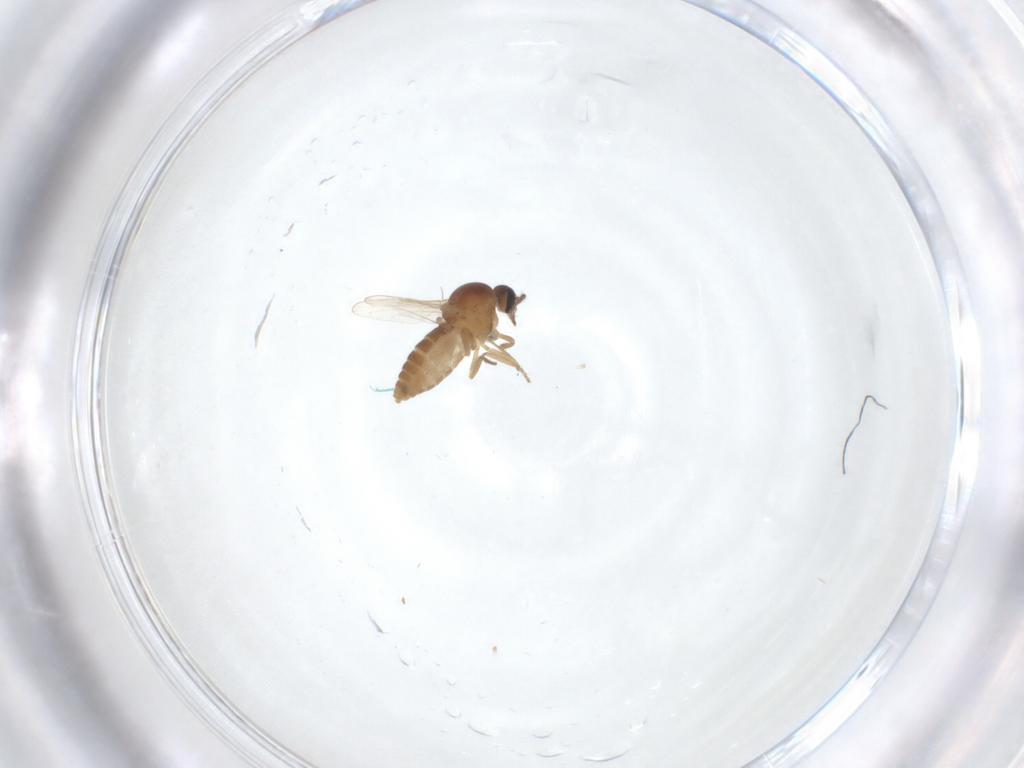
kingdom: Animalia
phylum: Arthropoda
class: Insecta
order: Diptera
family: Ceratopogonidae
